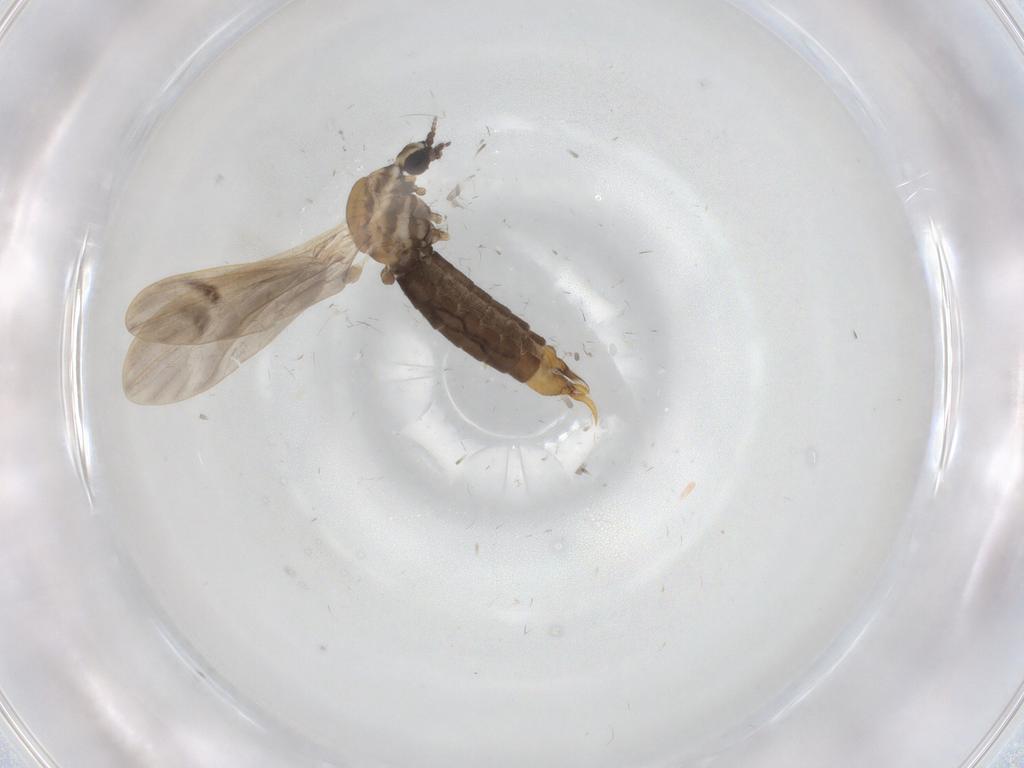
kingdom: Animalia
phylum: Arthropoda
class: Insecta
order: Diptera
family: Limoniidae
